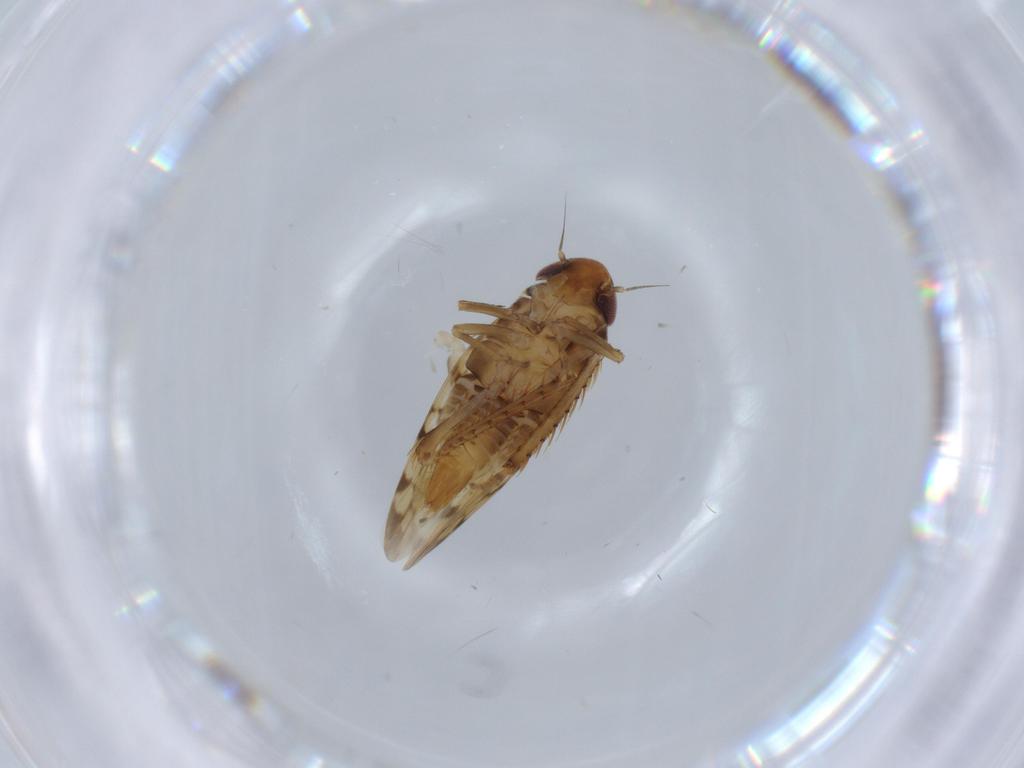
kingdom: Animalia
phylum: Arthropoda
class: Insecta
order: Hemiptera
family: Cicadellidae
